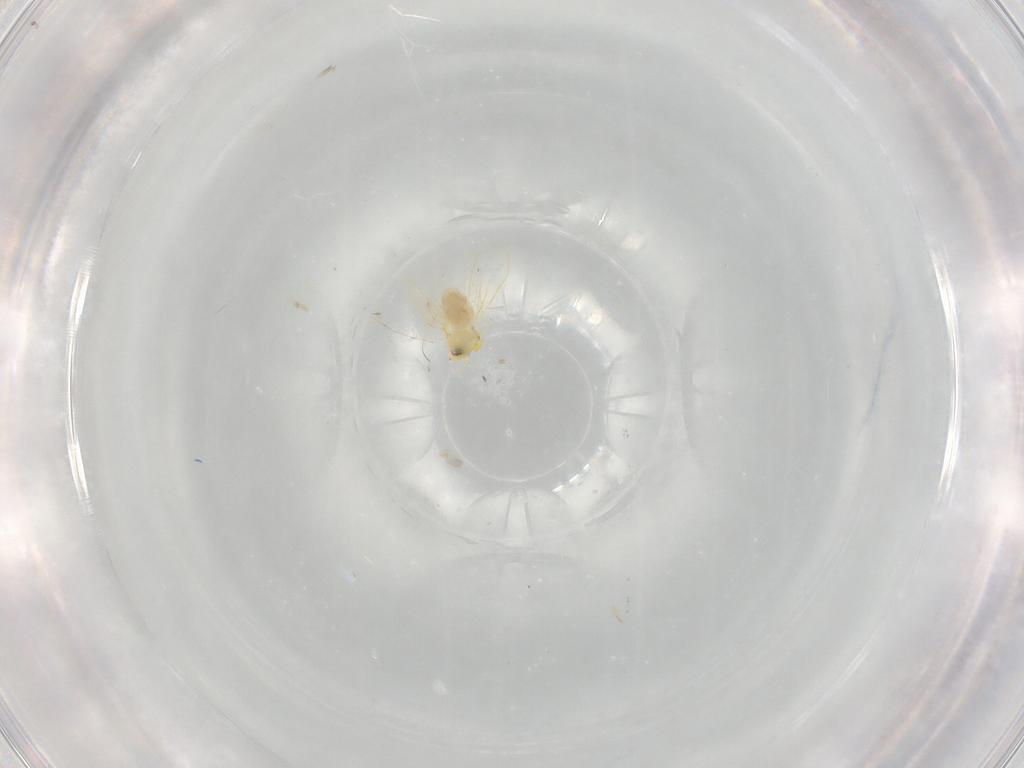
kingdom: Animalia
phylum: Arthropoda
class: Insecta
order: Hemiptera
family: Aleyrodidae
